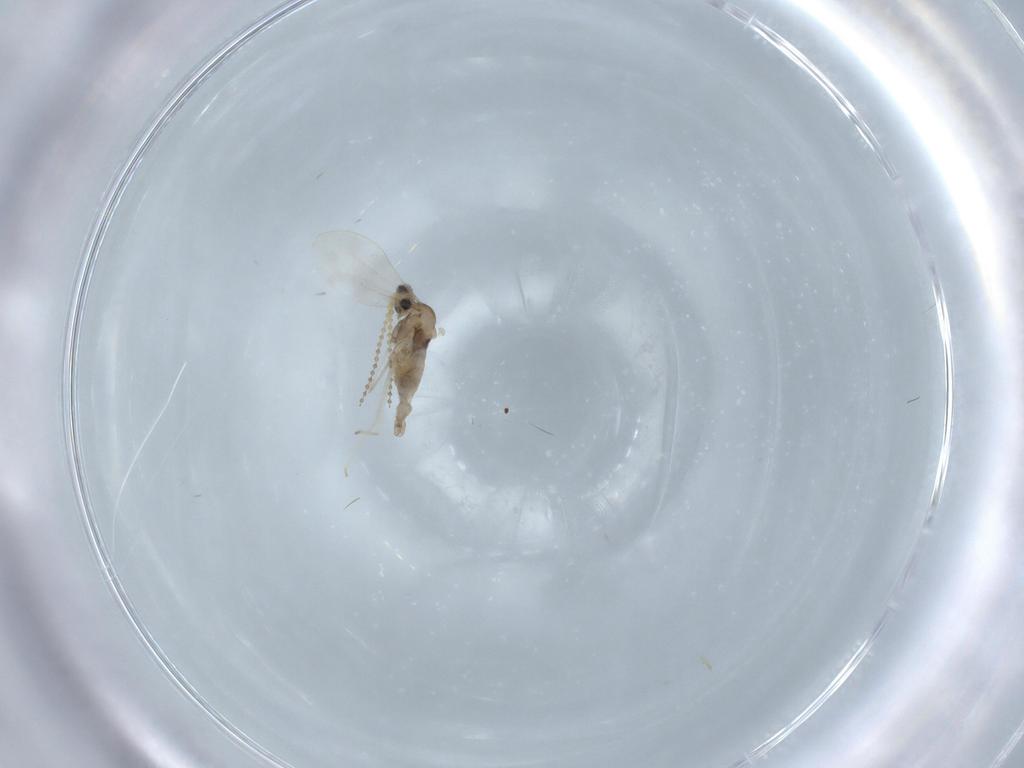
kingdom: Animalia
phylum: Arthropoda
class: Insecta
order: Diptera
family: Cecidomyiidae
